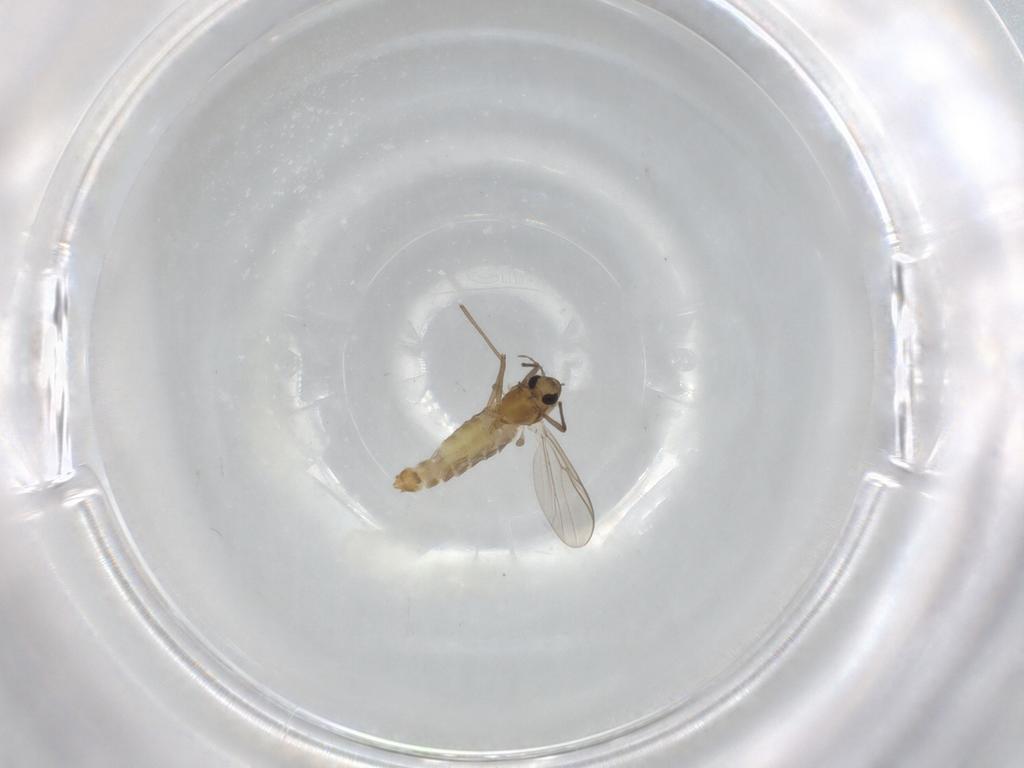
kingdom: Animalia
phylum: Arthropoda
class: Insecta
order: Diptera
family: Chironomidae
